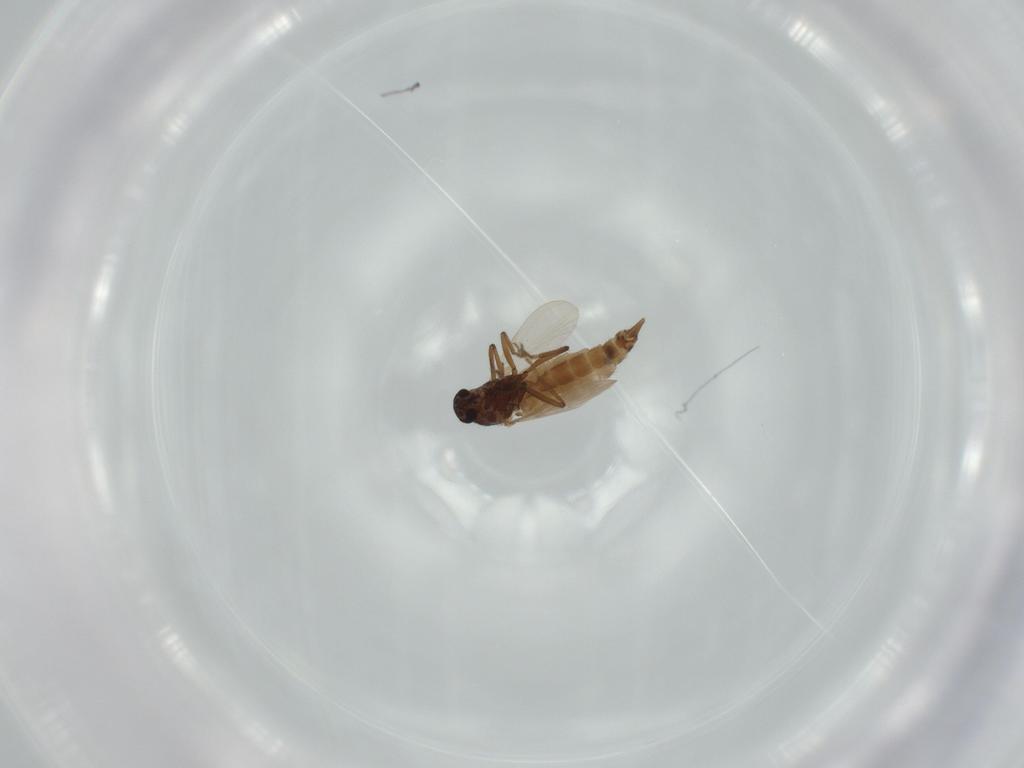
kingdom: Animalia
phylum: Arthropoda
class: Insecta
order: Diptera
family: Ceratopogonidae
